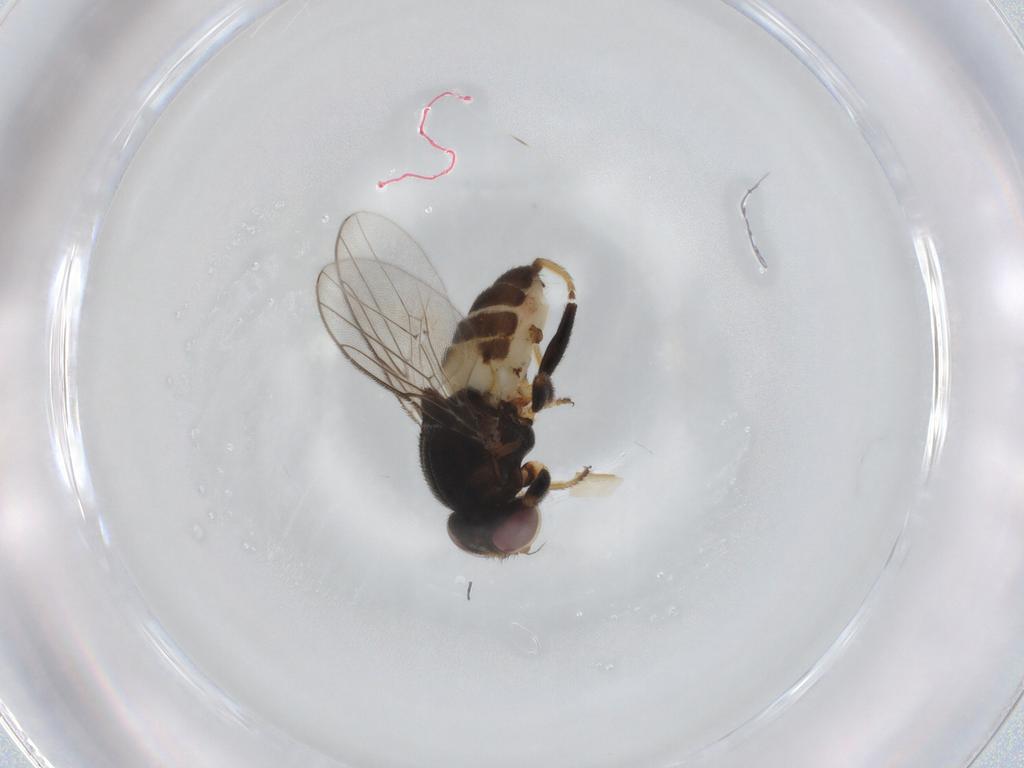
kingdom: Animalia
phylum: Arthropoda
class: Insecta
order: Diptera
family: Chloropidae
